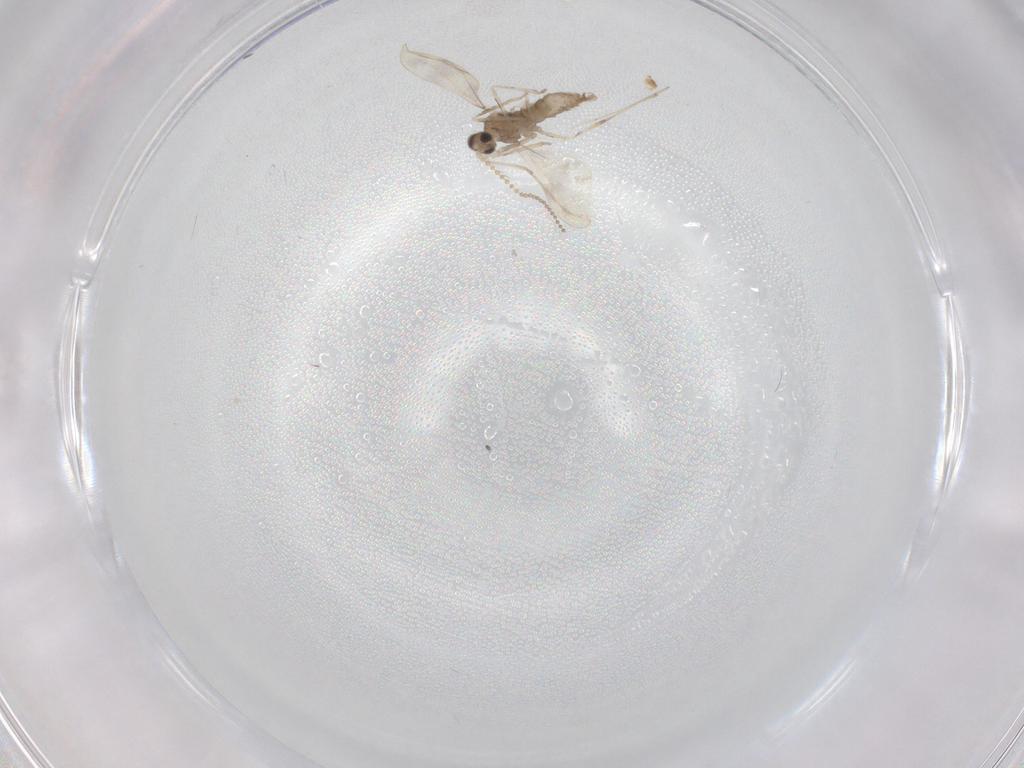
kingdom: Animalia
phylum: Arthropoda
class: Insecta
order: Diptera
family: Cecidomyiidae
